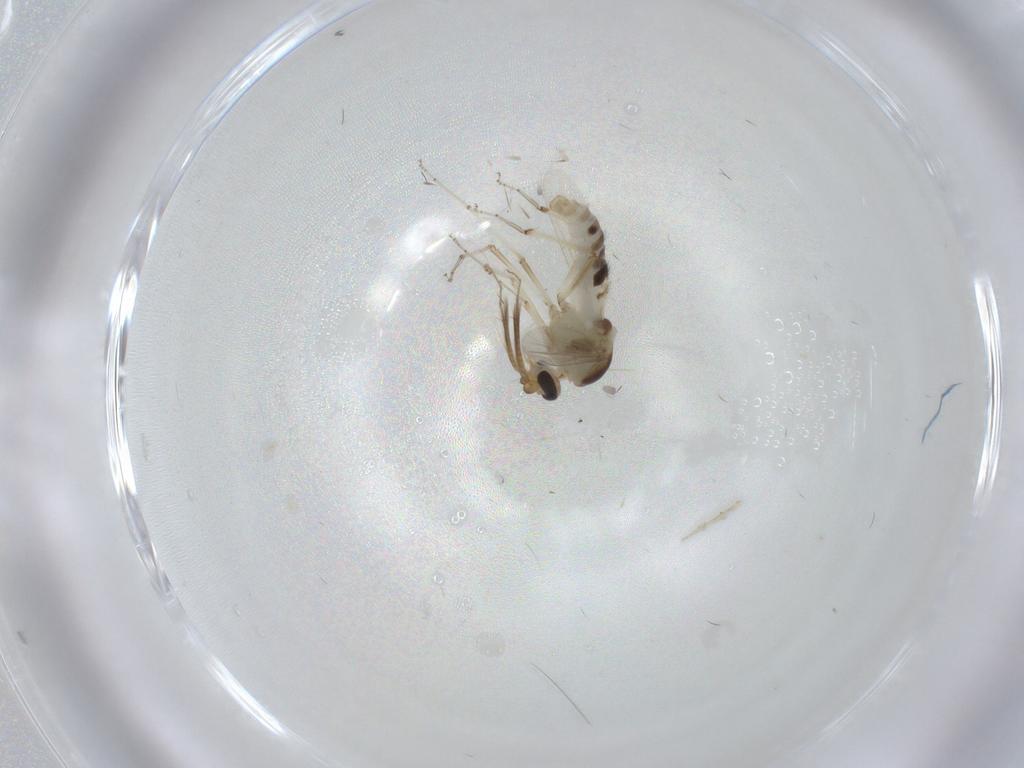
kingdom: Animalia
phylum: Arthropoda
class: Insecta
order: Diptera
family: Ceratopogonidae
